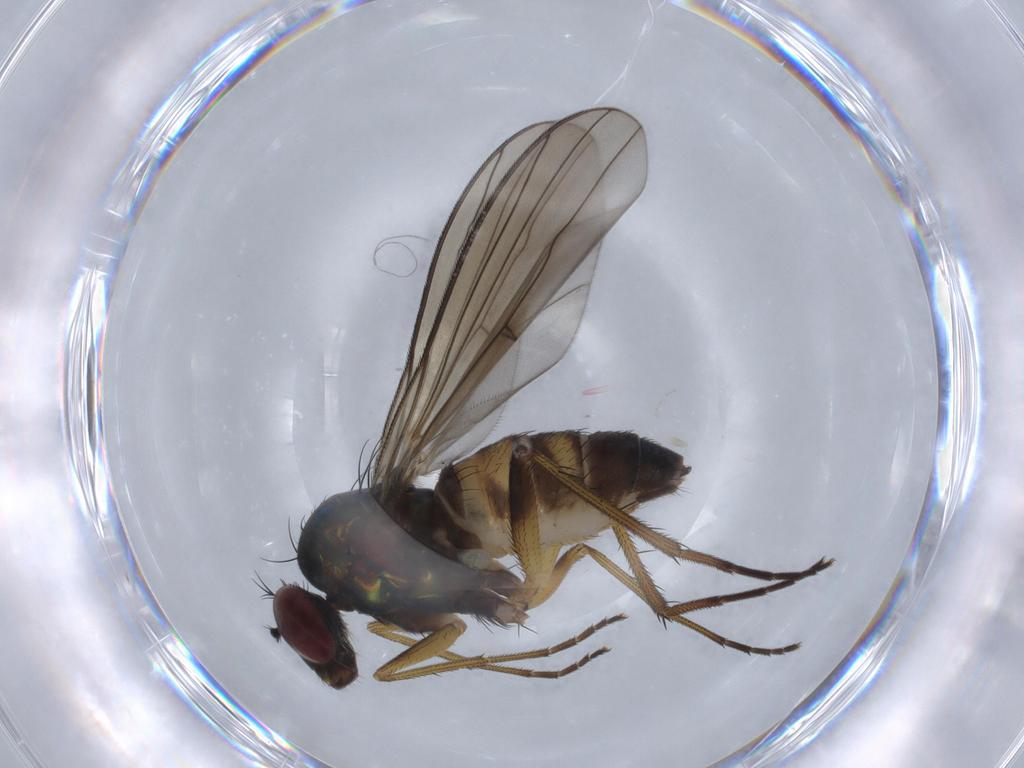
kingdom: Animalia
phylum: Arthropoda
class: Insecta
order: Diptera
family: Dolichopodidae
